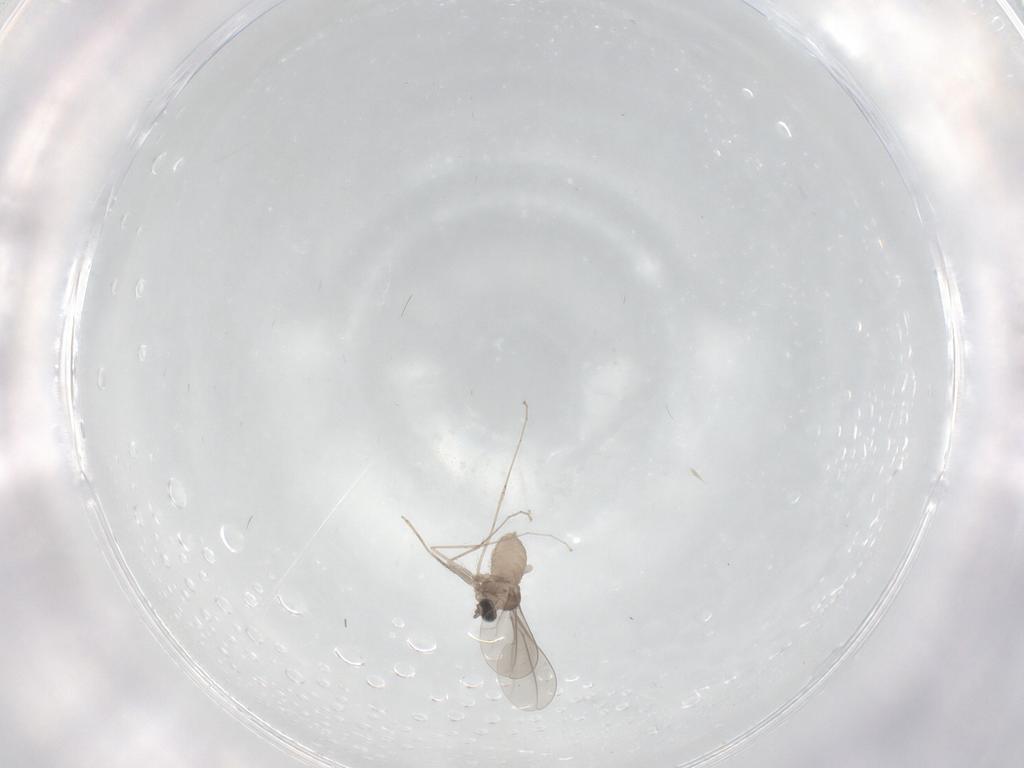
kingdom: Animalia
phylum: Arthropoda
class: Insecta
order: Diptera
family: Cecidomyiidae
